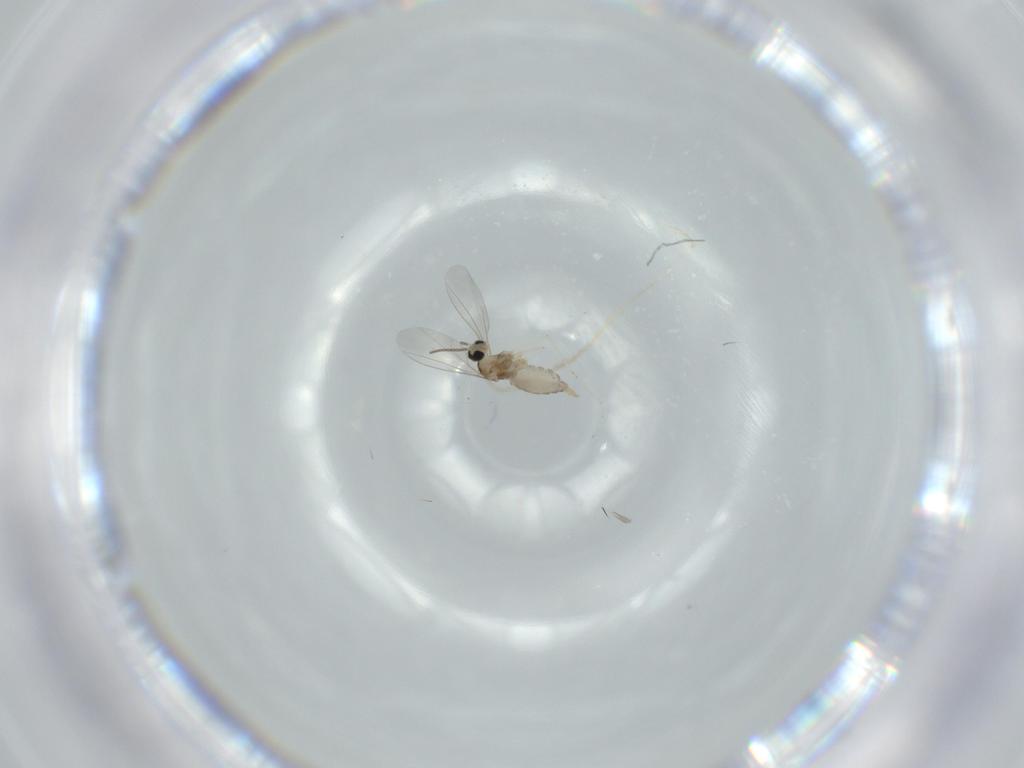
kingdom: Animalia
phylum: Arthropoda
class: Insecta
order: Diptera
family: Cecidomyiidae
